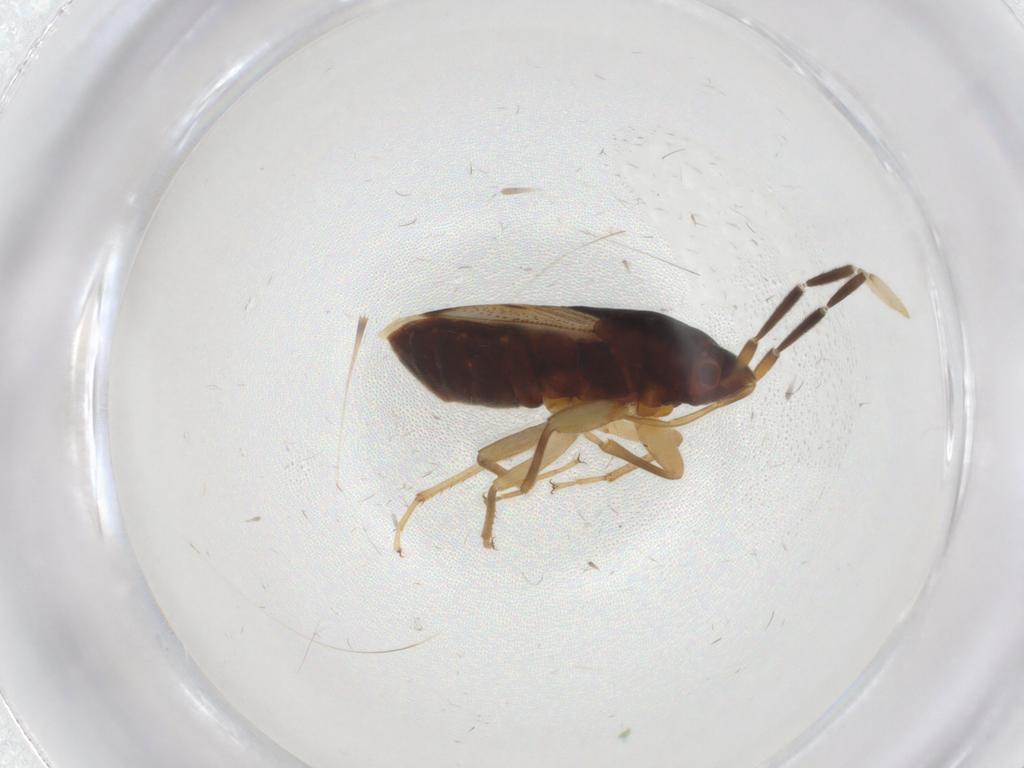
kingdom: Animalia
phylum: Arthropoda
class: Insecta
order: Hemiptera
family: Rhyparochromidae
